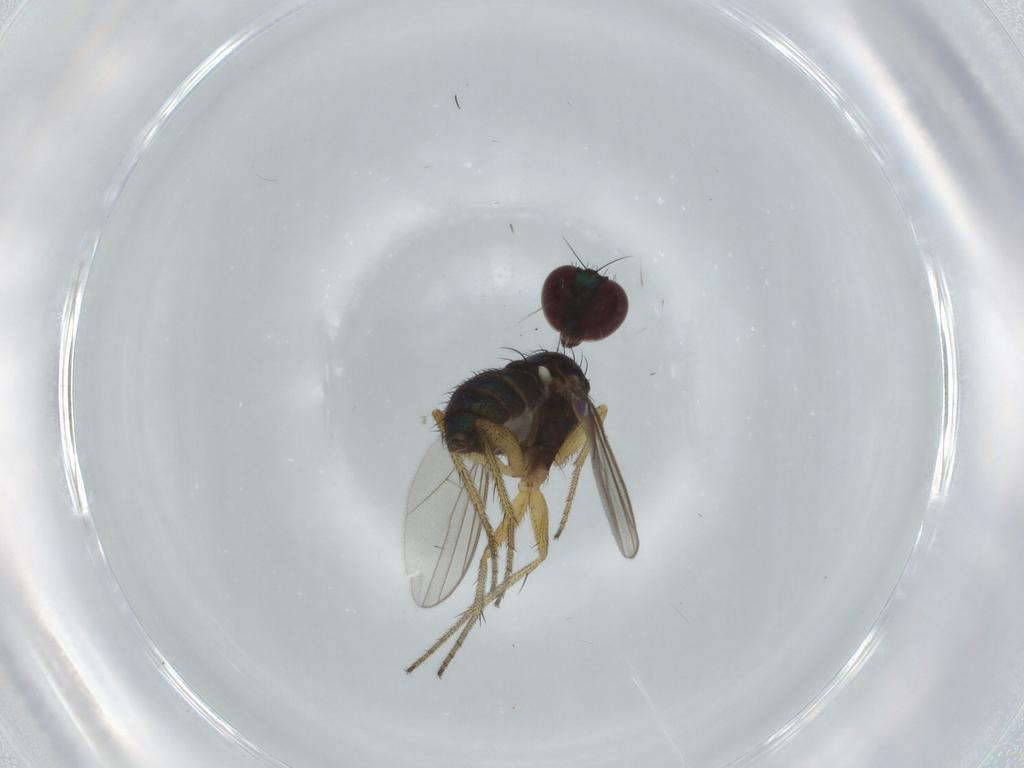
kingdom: Animalia
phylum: Arthropoda
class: Insecta
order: Diptera
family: Dolichopodidae
